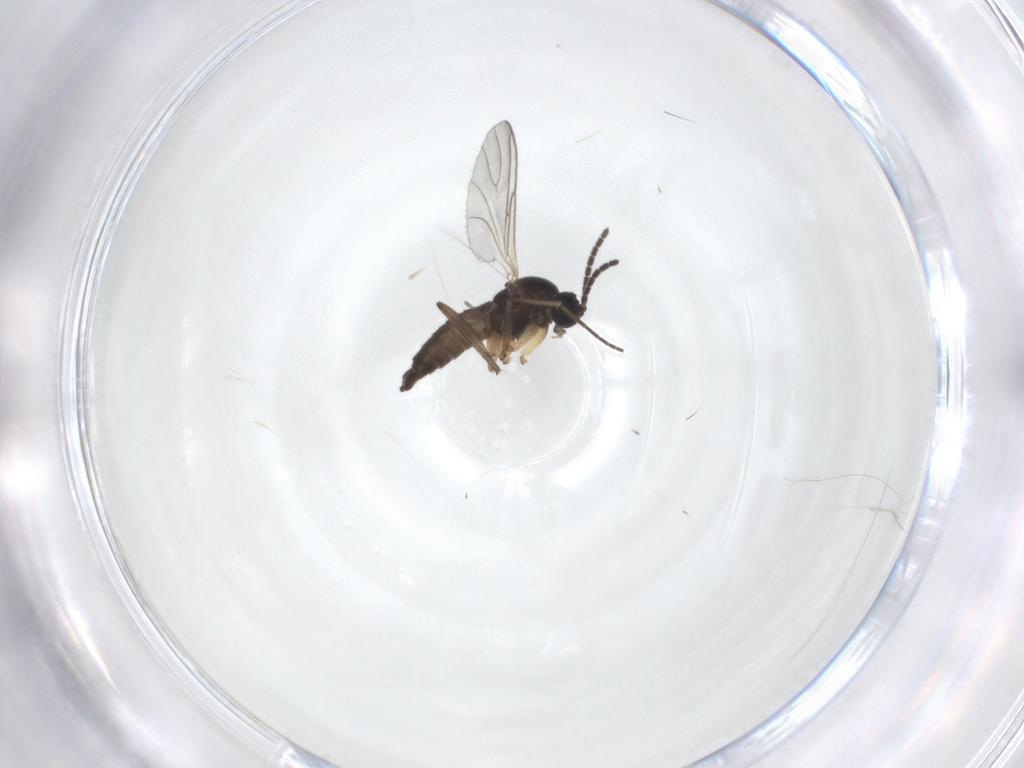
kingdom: Animalia
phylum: Arthropoda
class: Insecta
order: Diptera
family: Sciaridae
